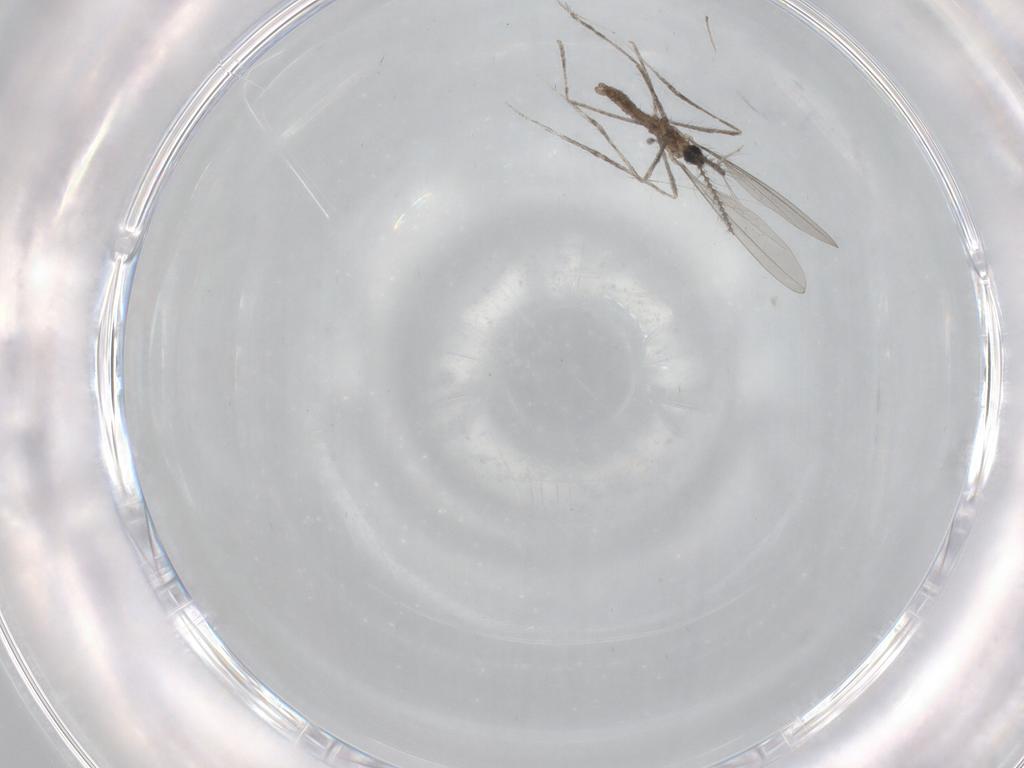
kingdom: Animalia
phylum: Arthropoda
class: Insecta
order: Diptera
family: Cecidomyiidae
